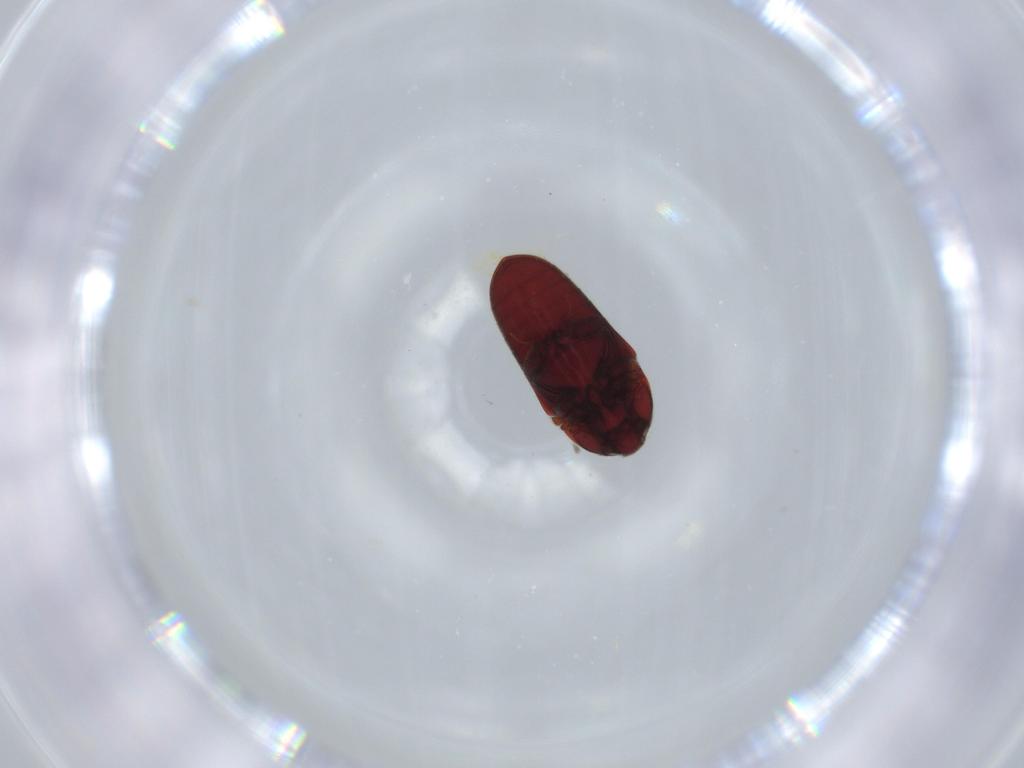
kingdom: Animalia
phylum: Arthropoda
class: Insecta
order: Coleoptera
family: Throscidae
